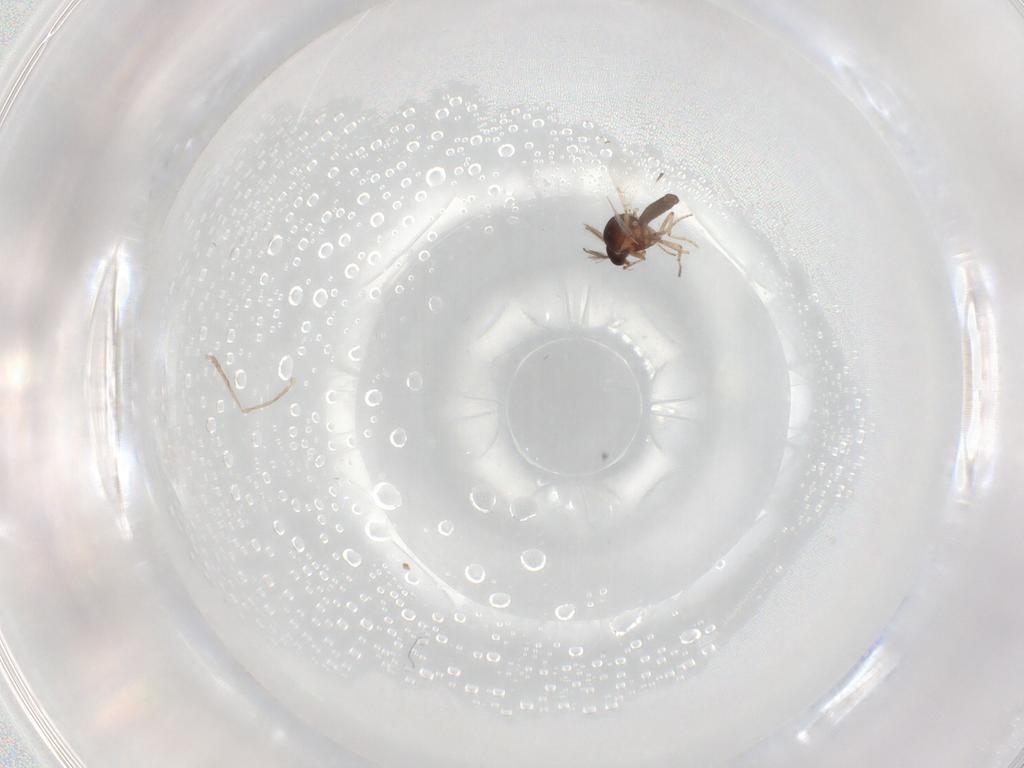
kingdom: Animalia
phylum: Arthropoda
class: Insecta
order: Diptera
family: Cecidomyiidae
